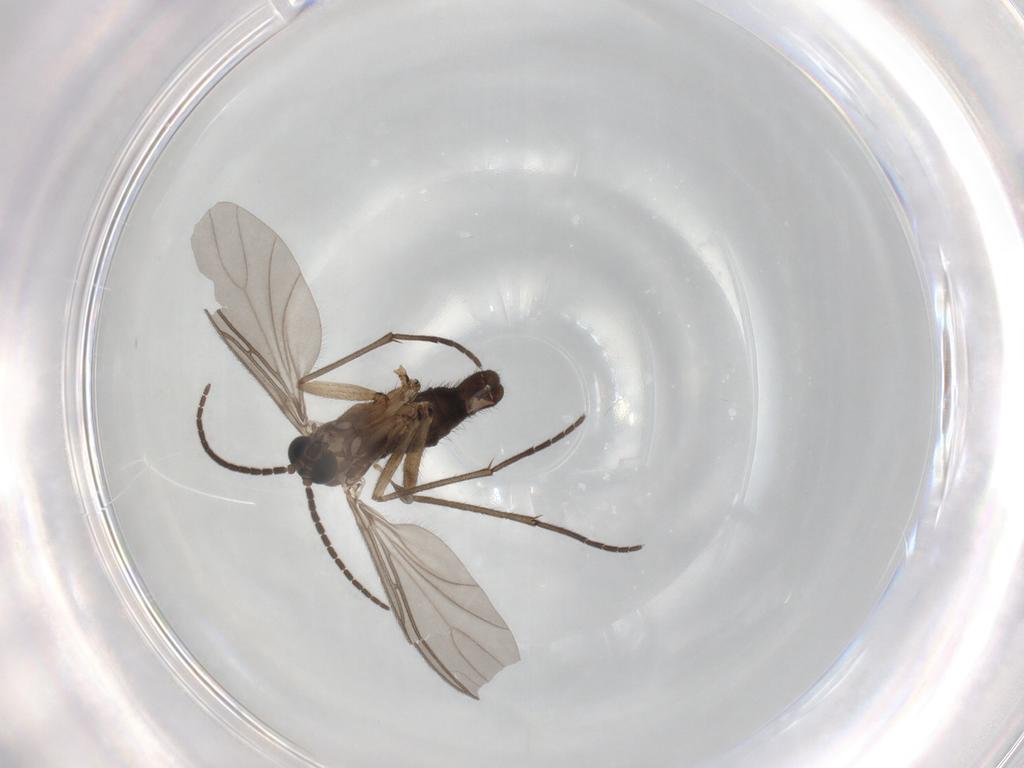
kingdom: Animalia
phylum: Arthropoda
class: Insecta
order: Diptera
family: Sciaridae
